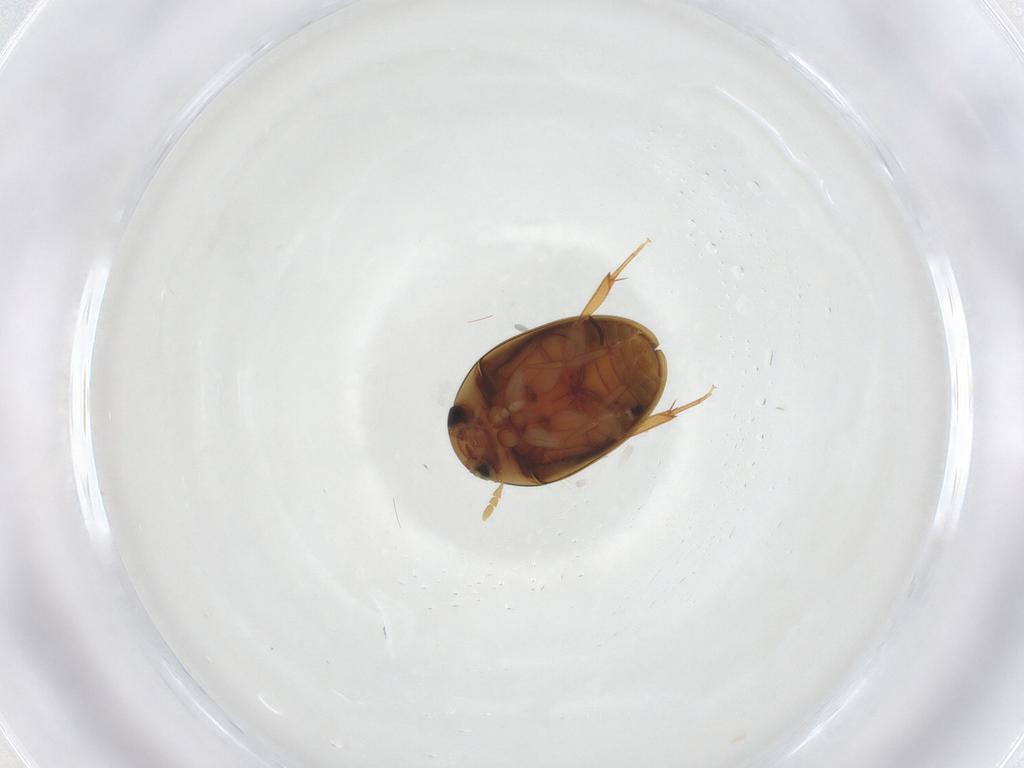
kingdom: Animalia
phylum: Arthropoda
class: Insecta
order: Coleoptera
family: Phalacridae
